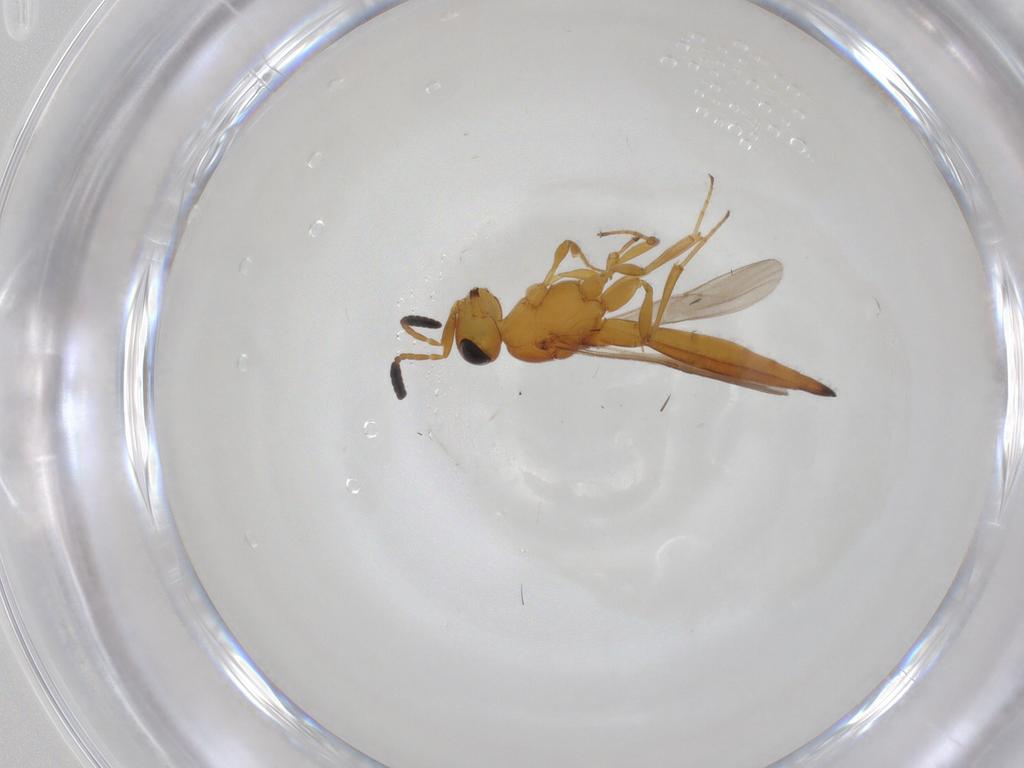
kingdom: Animalia
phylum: Arthropoda
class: Insecta
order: Hymenoptera
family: Scelionidae
